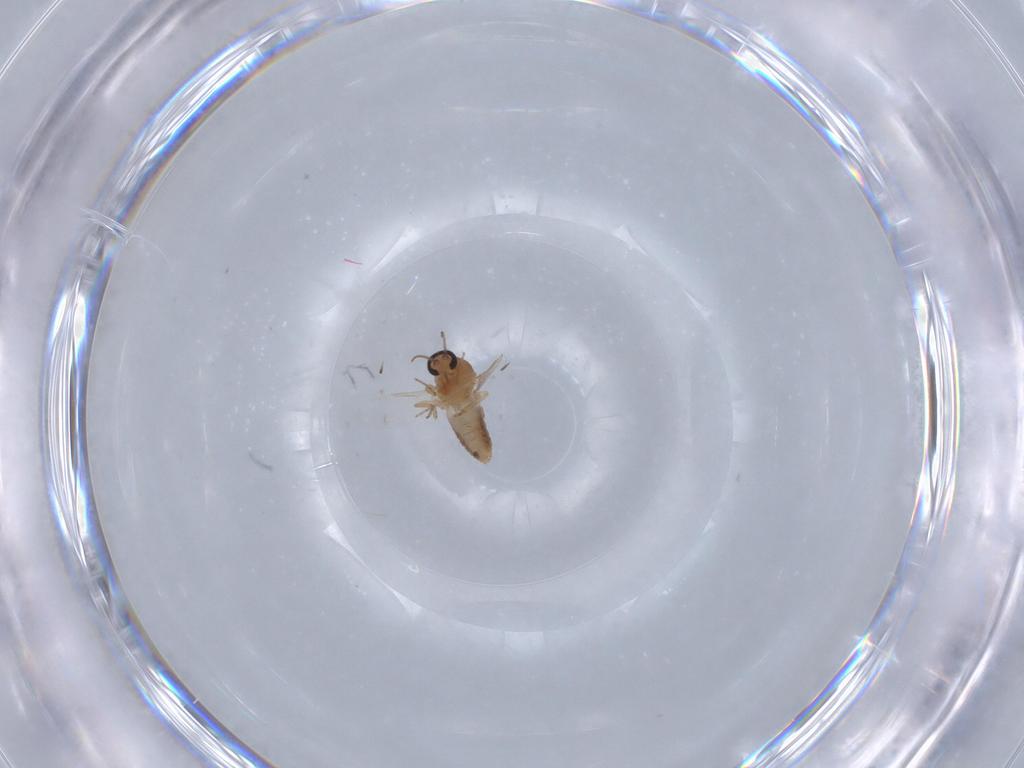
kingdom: Animalia
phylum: Arthropoda
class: Insecta
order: Diptera
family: Ceratopogonidae
